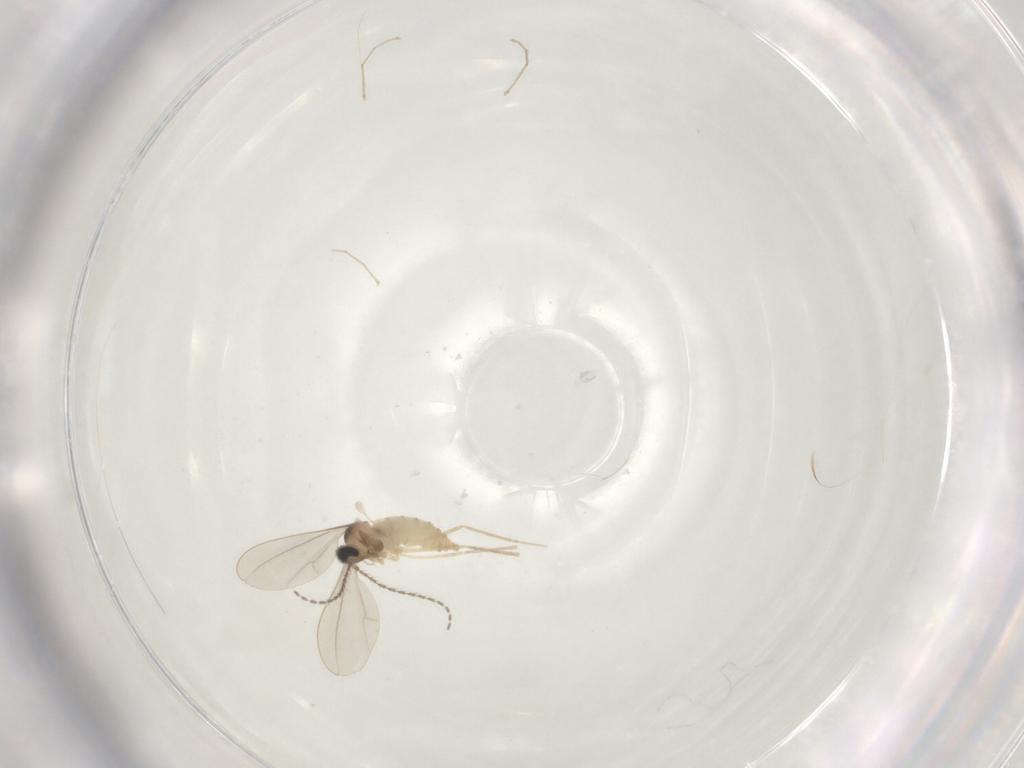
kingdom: Animalia
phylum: Arthropoda
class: Insecta
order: Diptera
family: Cecidomyiidae
